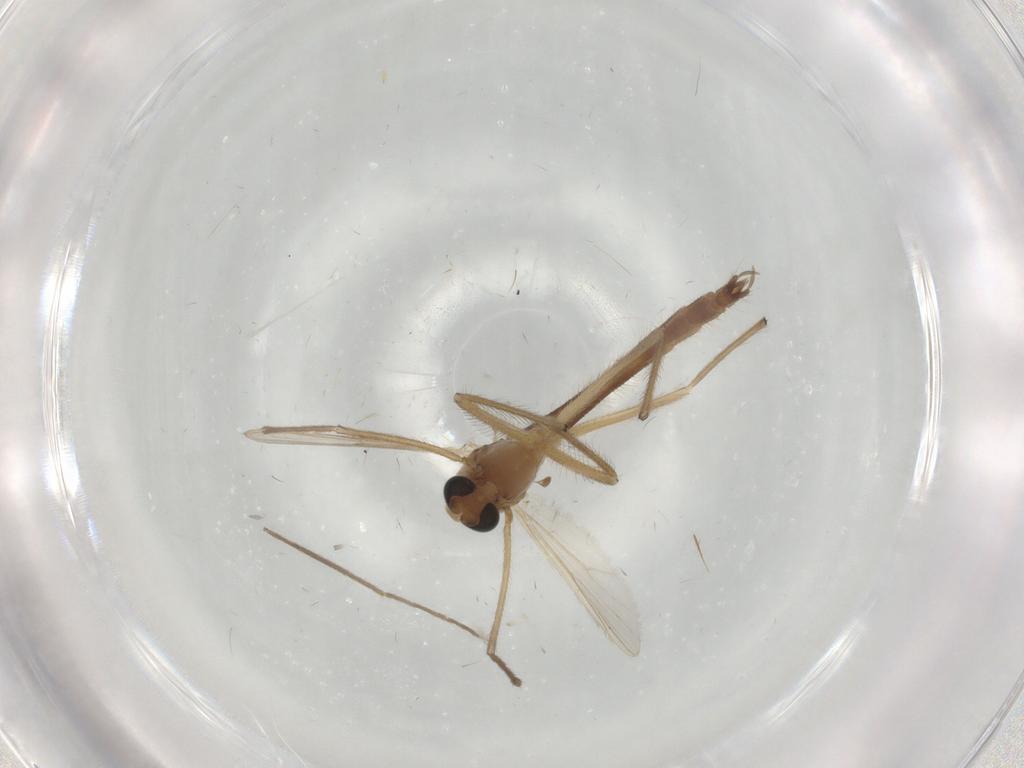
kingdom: Animalia
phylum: Arthropoda
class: Insecta
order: Diptera
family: Chironomidae
